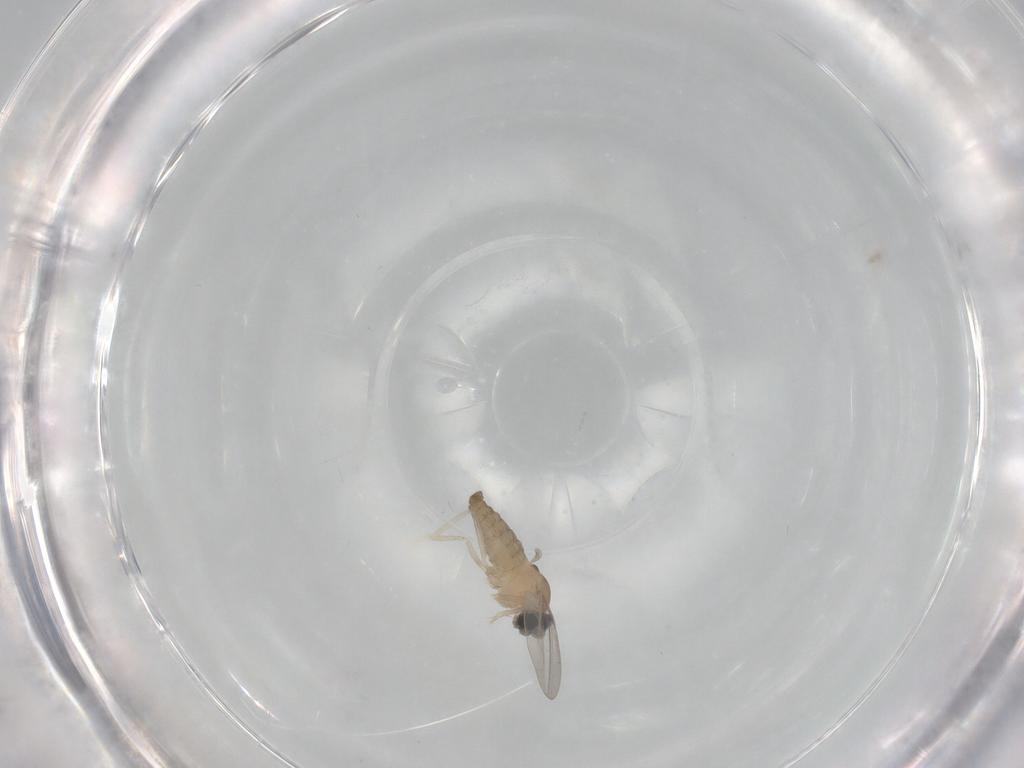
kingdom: Animalia
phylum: Arthropoda
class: Insecta
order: Diptera
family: Cecidomyiidae
